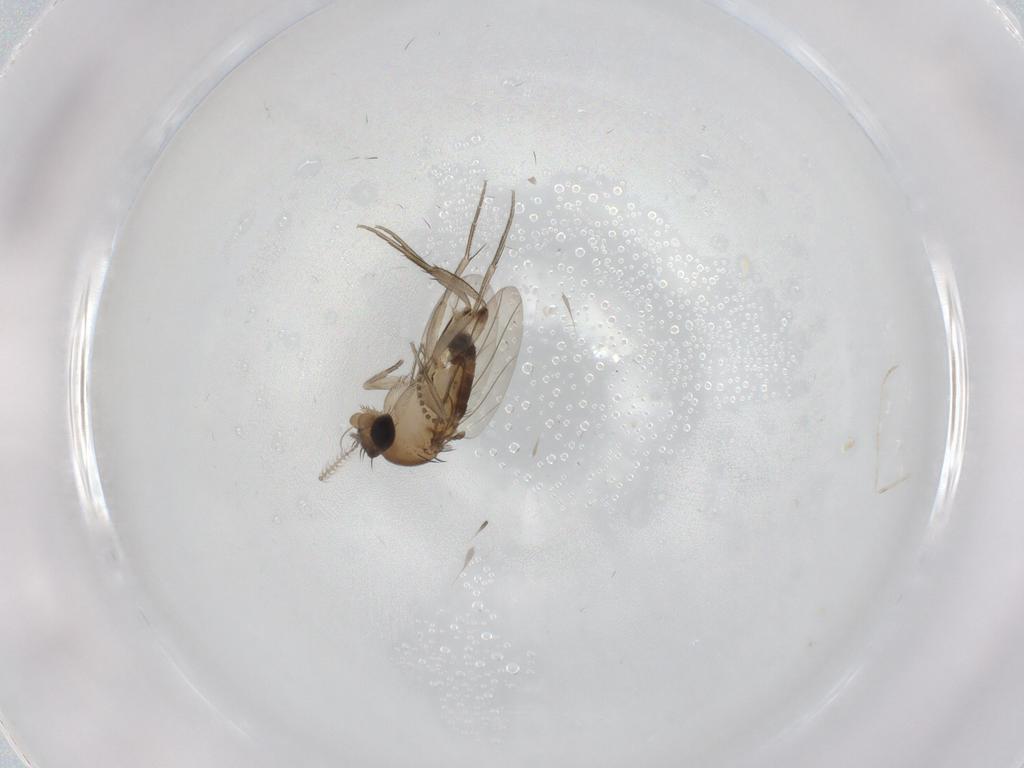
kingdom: Animalia
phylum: Arthropoda
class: Insecta
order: Diptera
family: Phoridae
